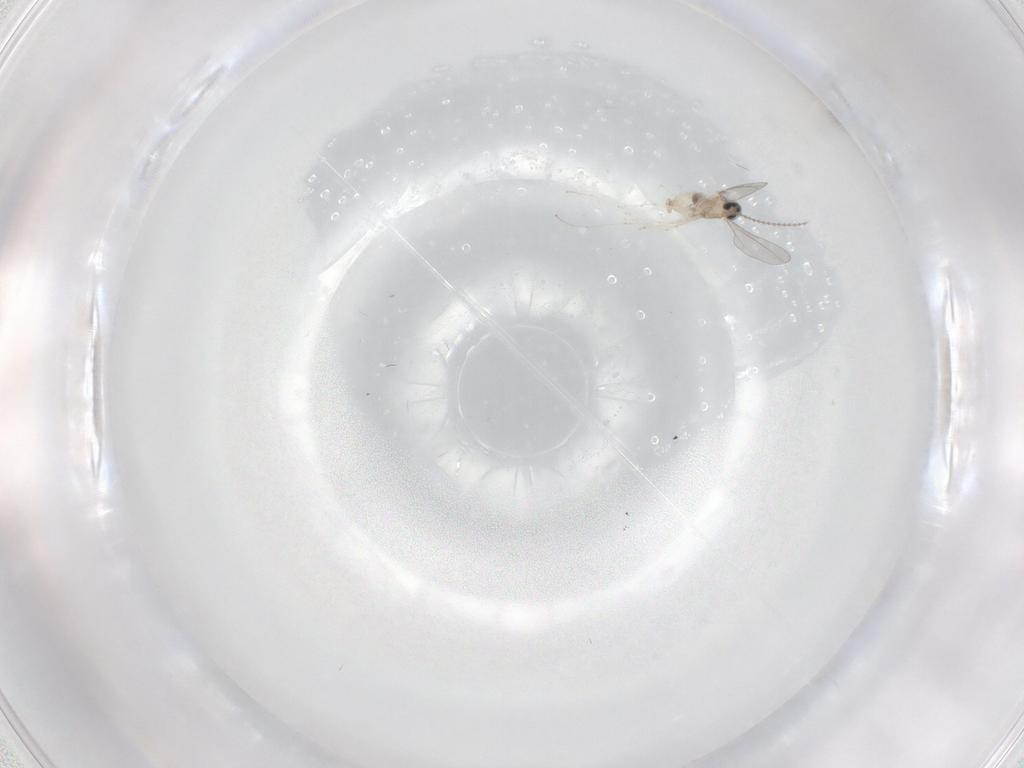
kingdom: Animalia
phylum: Arthropoda
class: Insecta
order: Diptera
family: Cecidomyiidae
